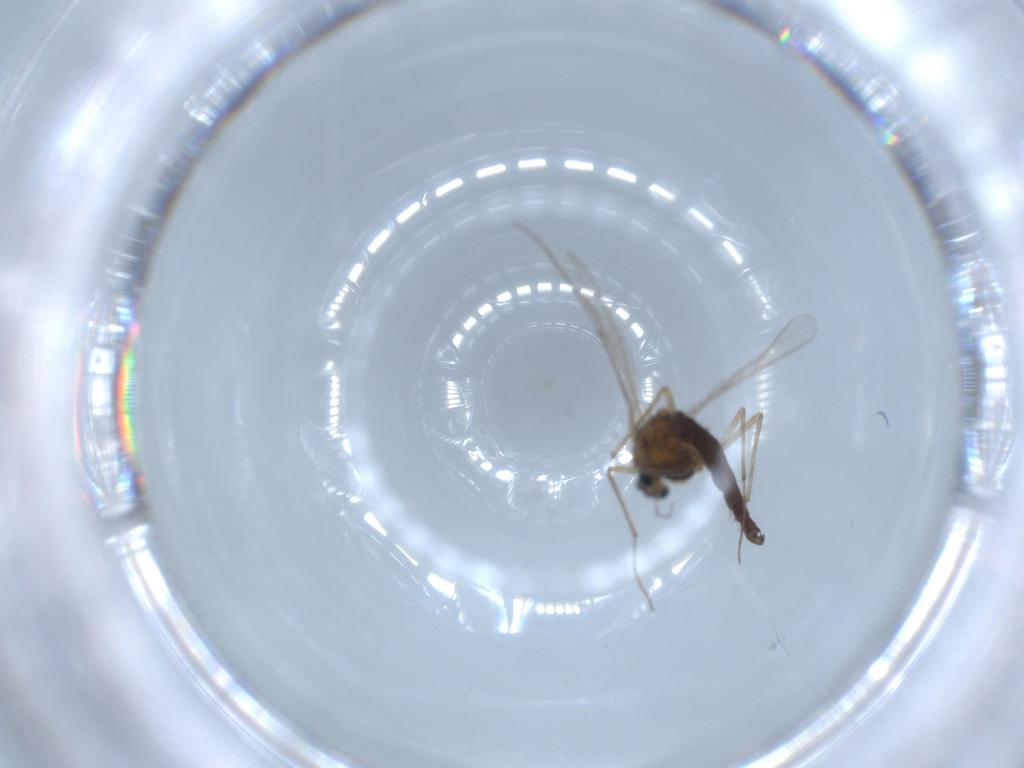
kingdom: Animalia
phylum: Arthropoda
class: Insecta
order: Diptera
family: Chironomidae
